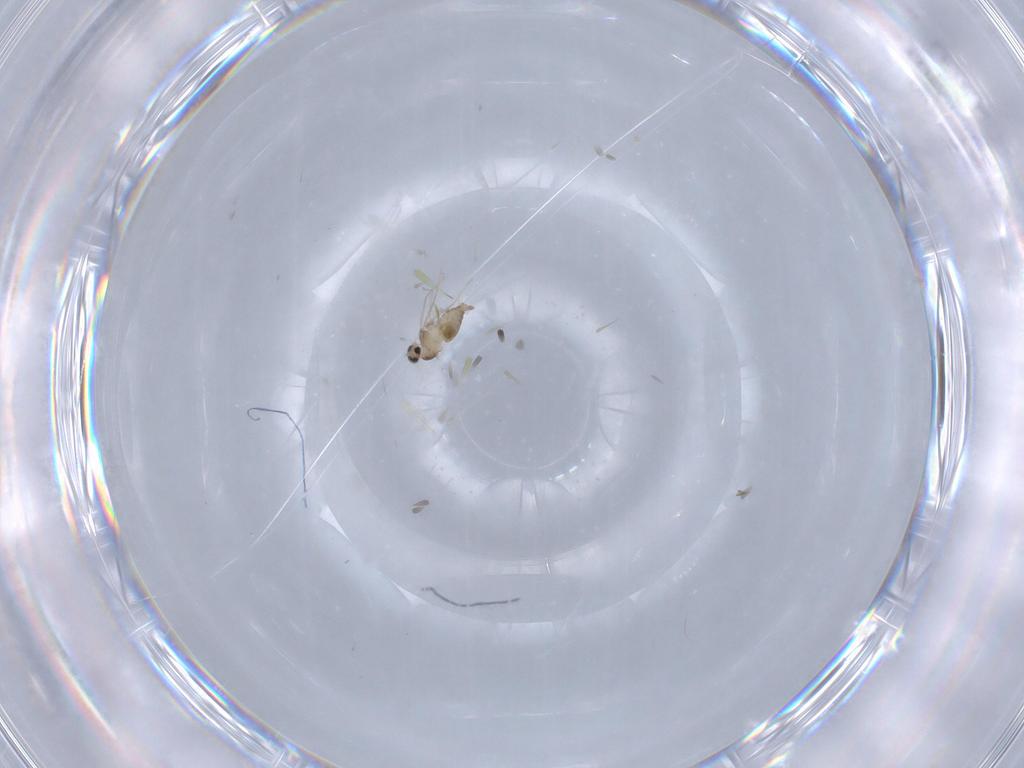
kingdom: Animalia
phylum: Arthropoda
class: Insecta
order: Diptera
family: Cecidomyiidae
